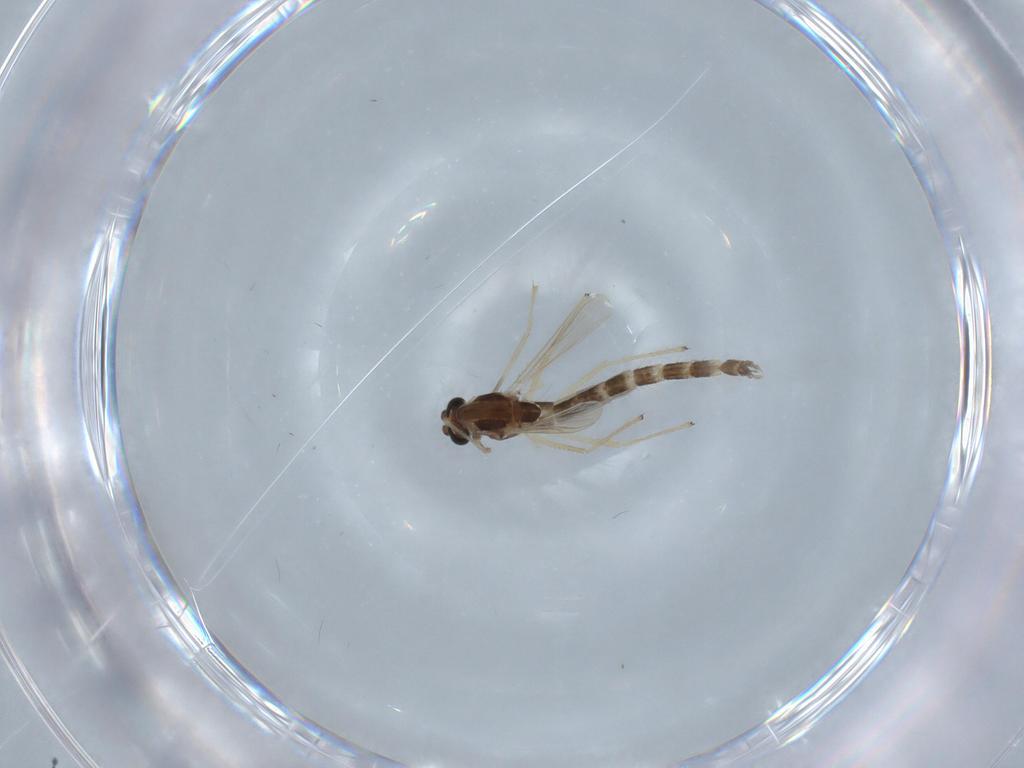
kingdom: Animalia
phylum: Arthropoda
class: Insecta
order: Diptera
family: Chironomidae
